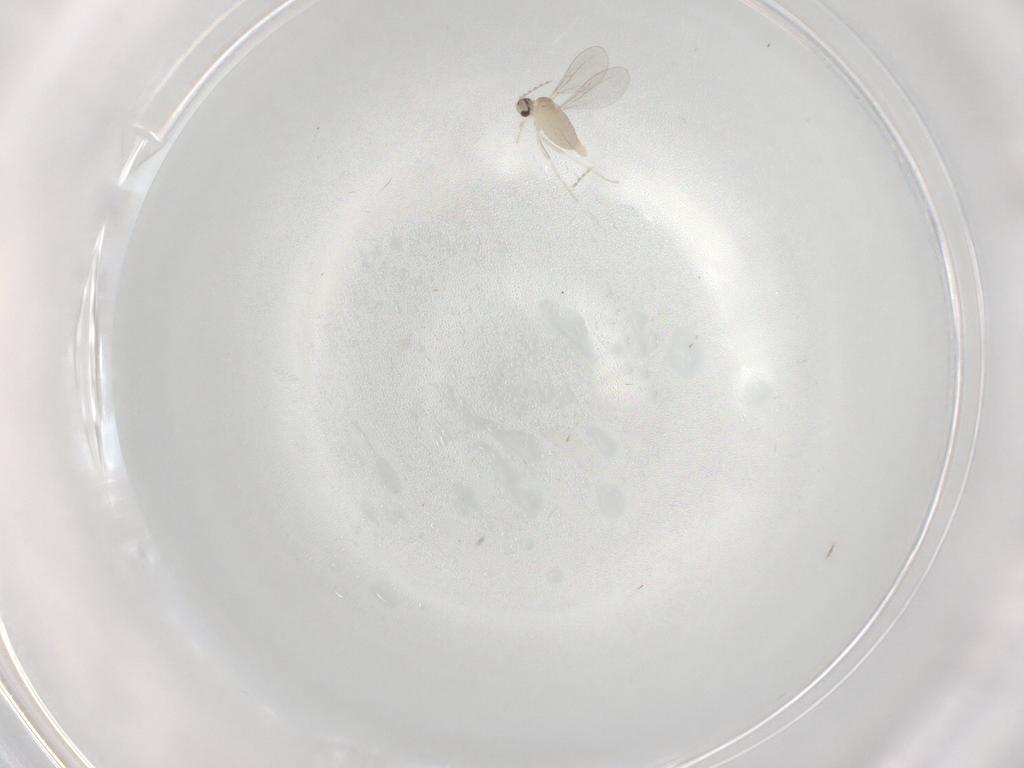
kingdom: Animalia
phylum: Arthropoda
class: Insecta
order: Diptera
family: Cecidomyiidae
